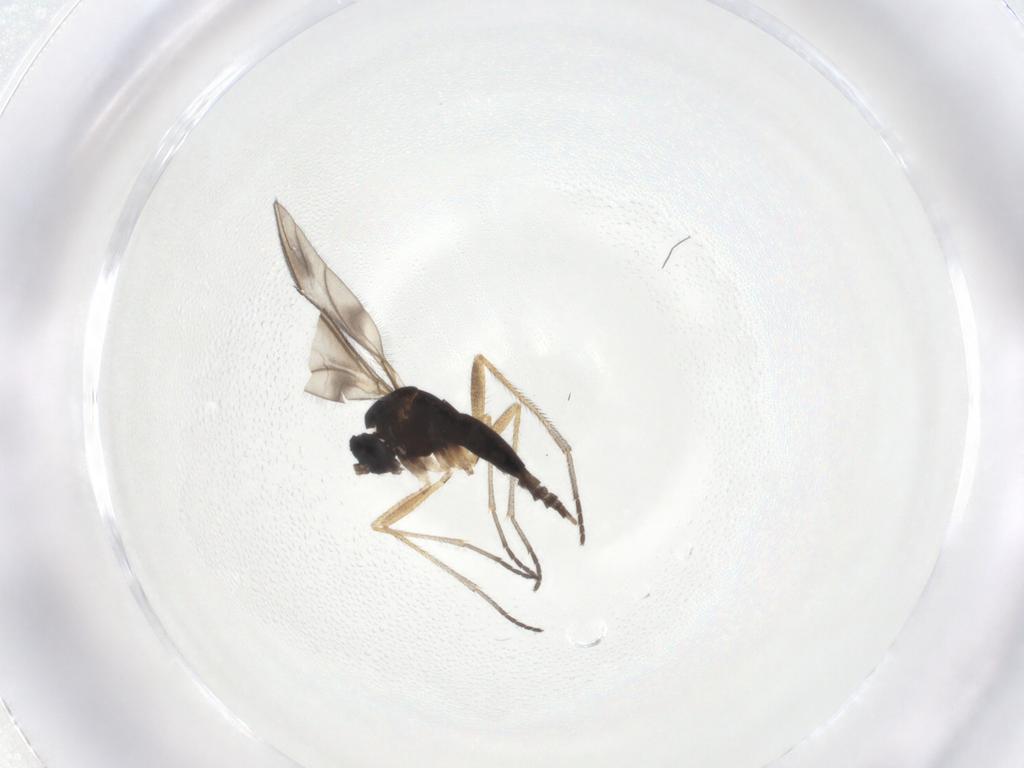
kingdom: Animalia
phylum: Arthropoda
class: Insecta
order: Diptera
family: Sciaridae
